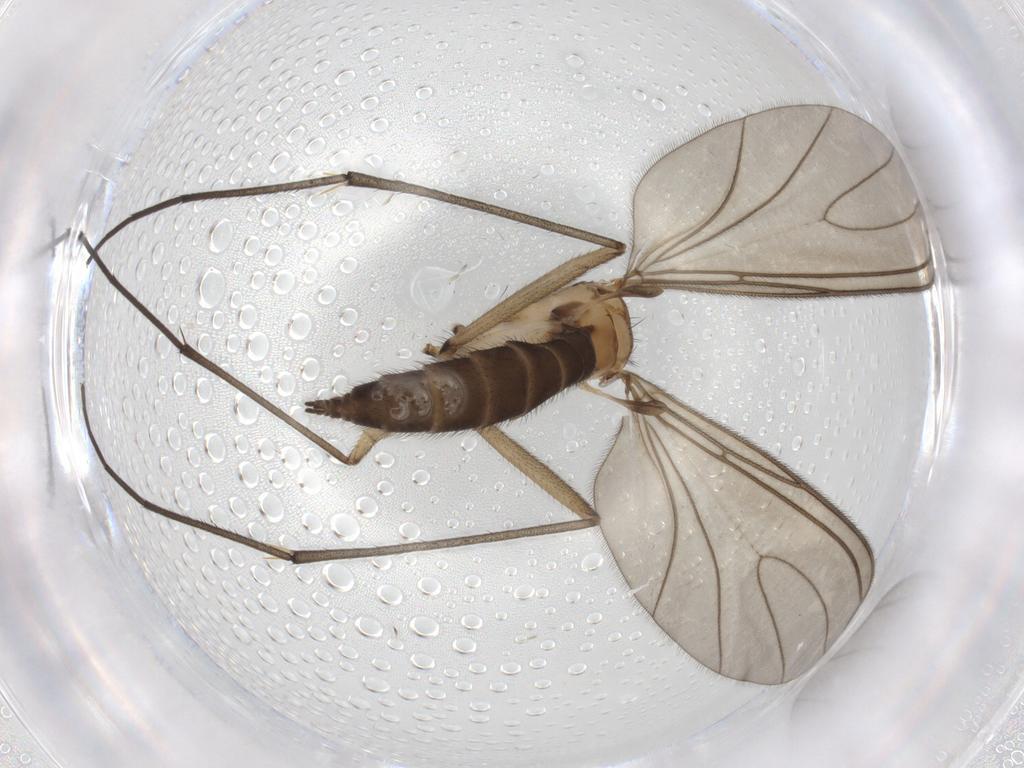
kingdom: Animalia
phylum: Arthropoda
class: Insecta
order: Diptera
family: Sciaridae
